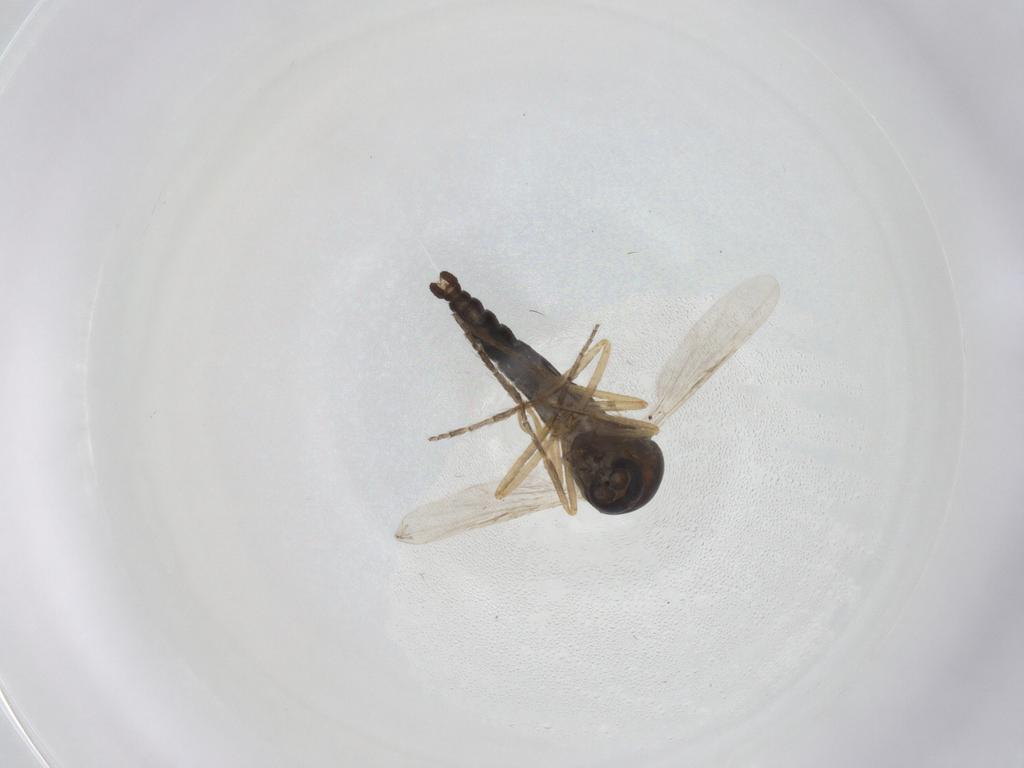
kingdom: Animalia
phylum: Arthropoda
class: Insecta
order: Diptera
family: Ceratopogonidae
